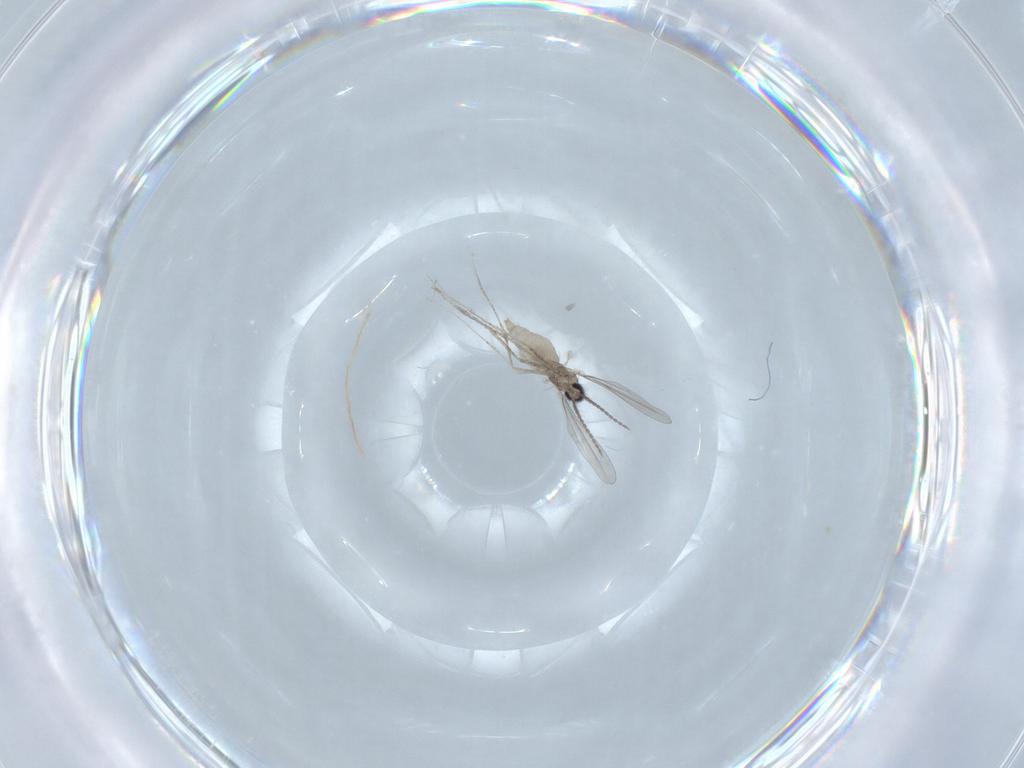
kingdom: Animalia
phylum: Arthropoda
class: Insecta
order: Diptera
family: Cecidomyiidae
